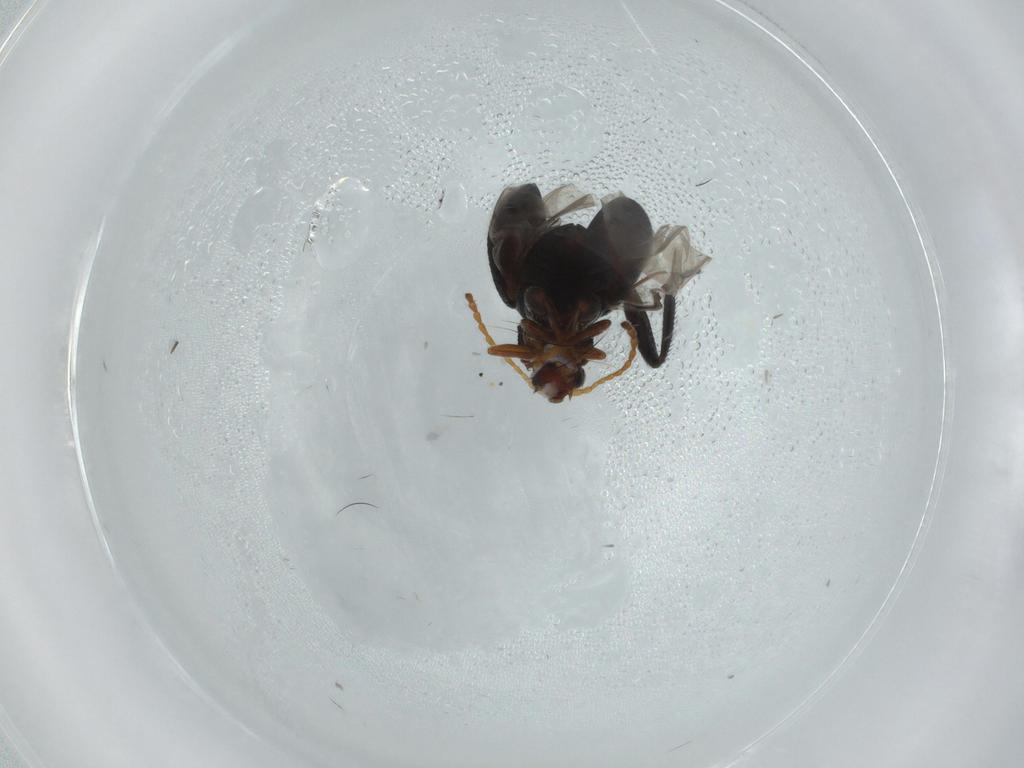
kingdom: Animalia
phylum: Arthropoda
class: Insecta
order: Coleoptera
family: Chrysomelidae
